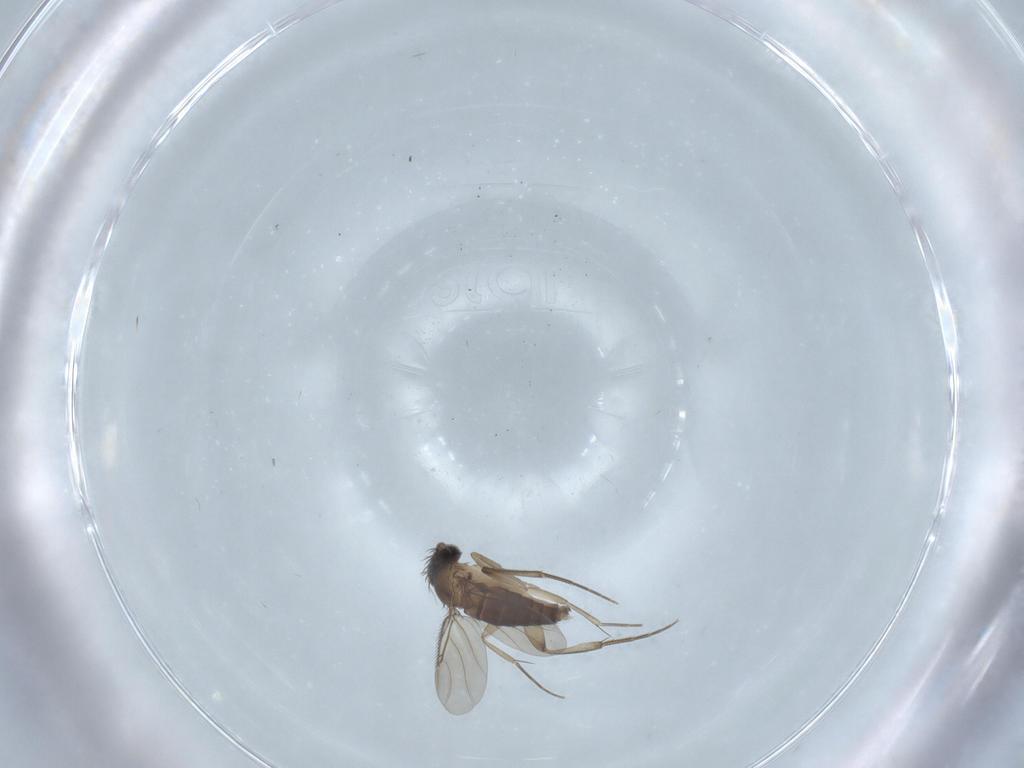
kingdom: Animalia
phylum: Arthropoda
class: Insecta
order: Diptera
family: Phoridae
